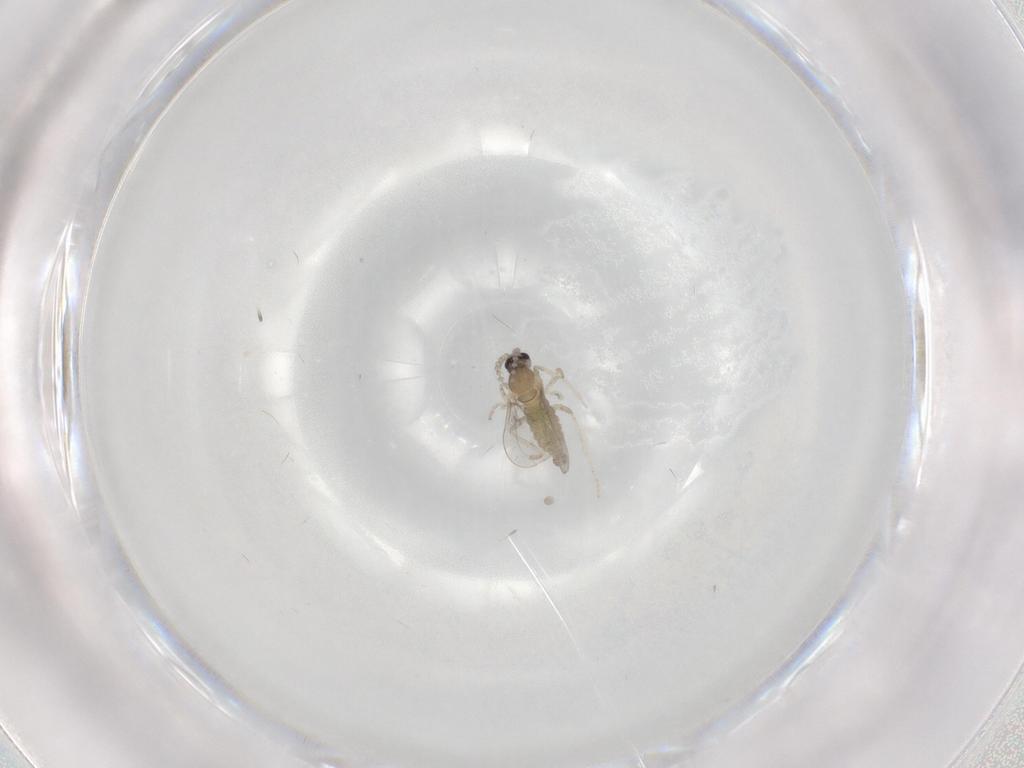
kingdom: Animalia
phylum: Arthropoda
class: Insecta
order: Diptera
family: Cecidomyiidae
